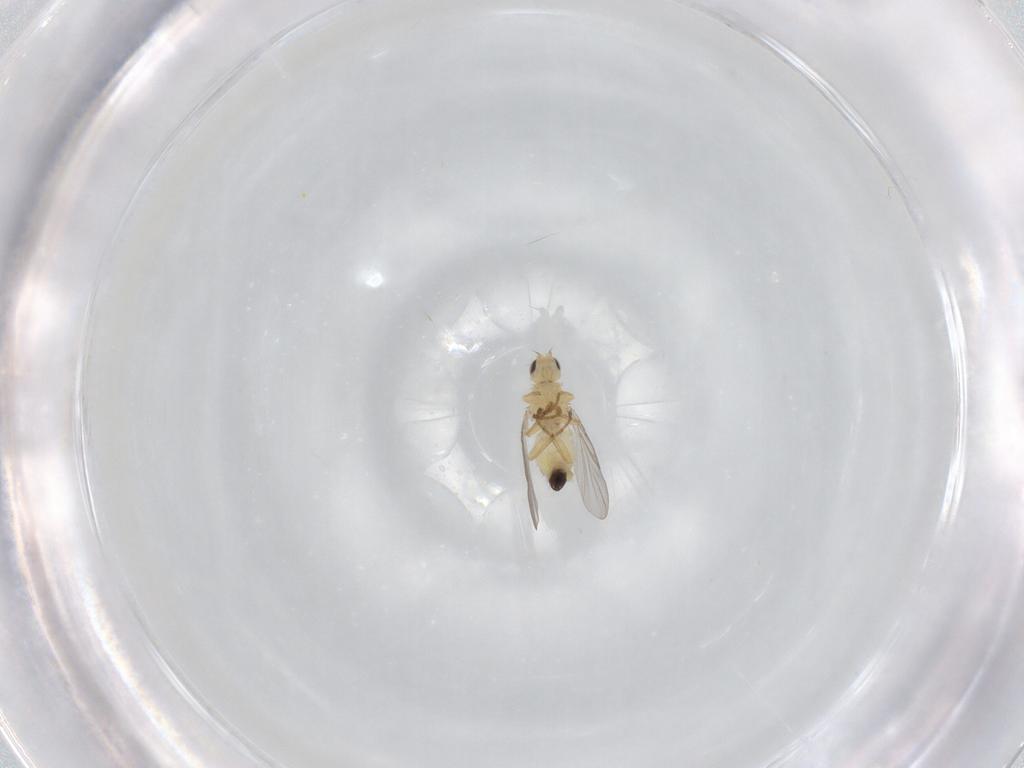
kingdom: Animalia
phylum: Arthropoda
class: Insecta
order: Diptera
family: Agromyzidae
